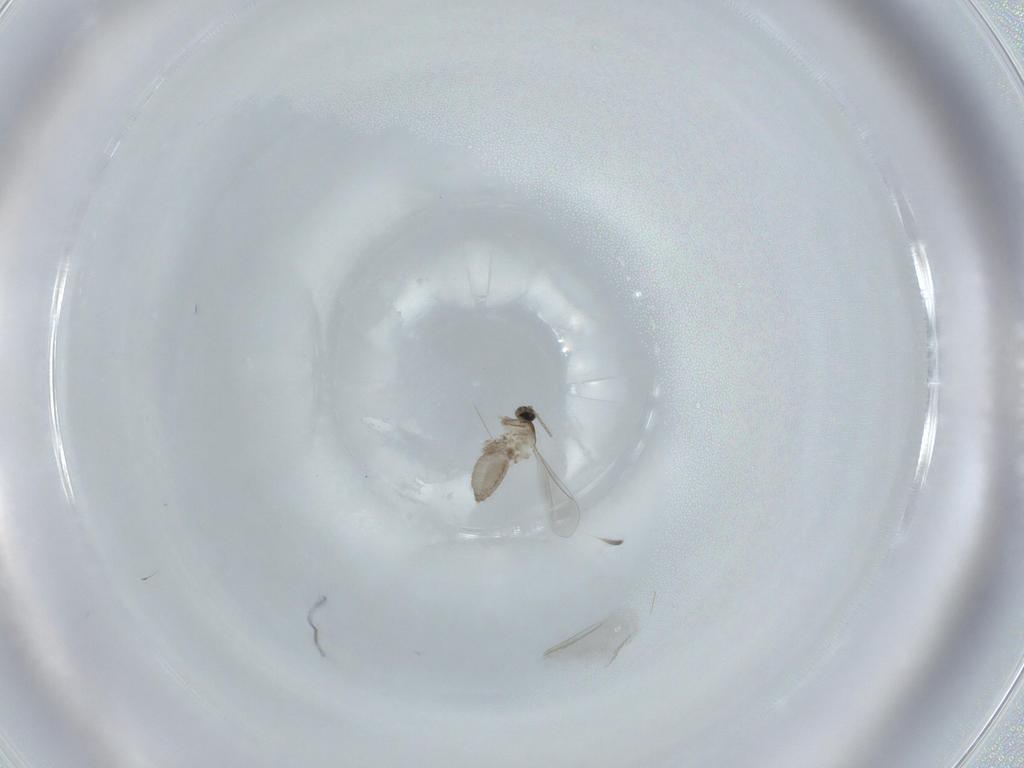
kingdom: Animalia
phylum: Arthropoda
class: Insecta
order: Diptera
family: Cecidomyiidae
